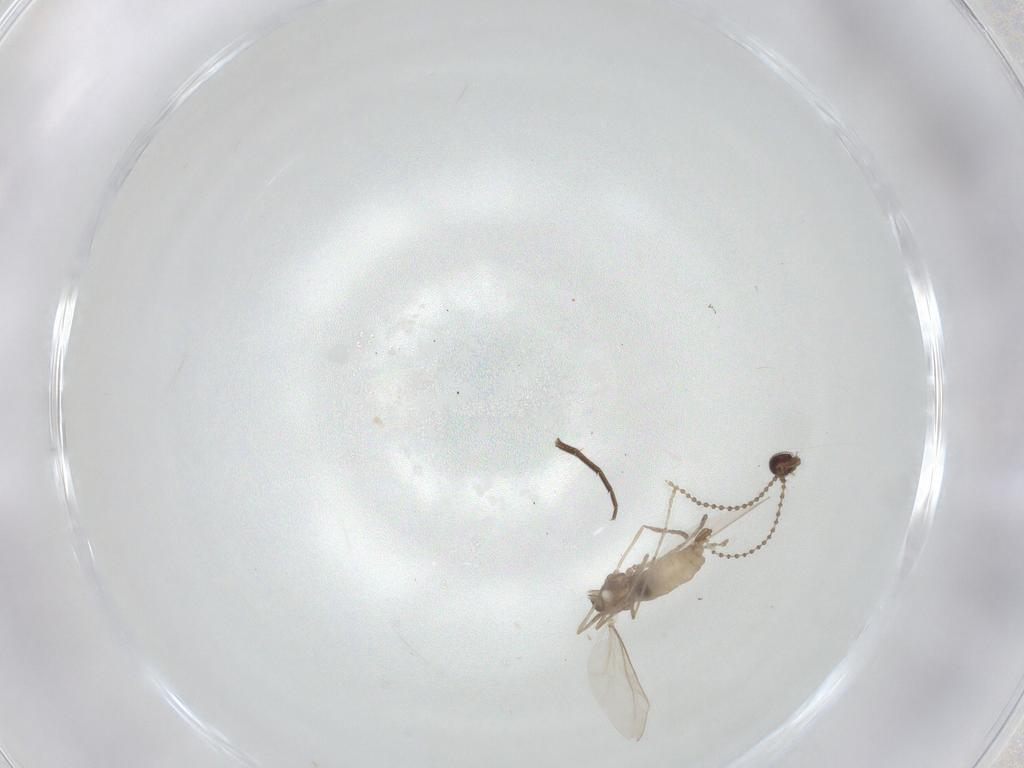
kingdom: Animalia
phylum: Arthropoda
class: Insecta
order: Diptera
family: Cecidomyiidae
